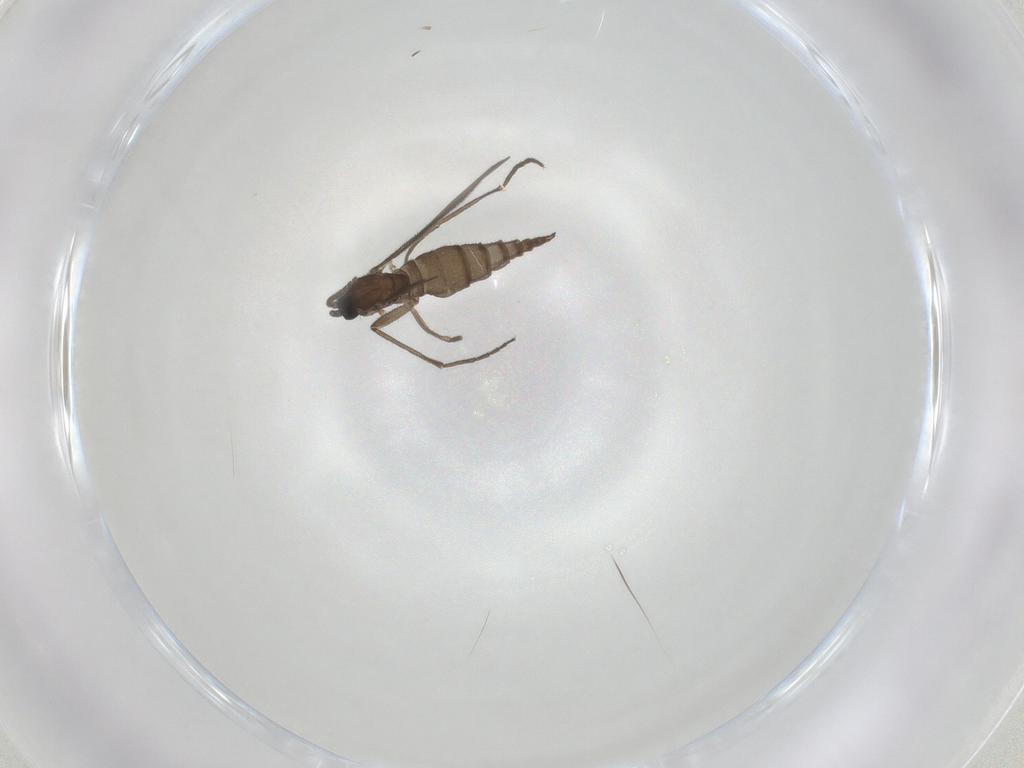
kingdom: Animalia
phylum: Arthropoda
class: Insecta
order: Diptera
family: Sciaridae
